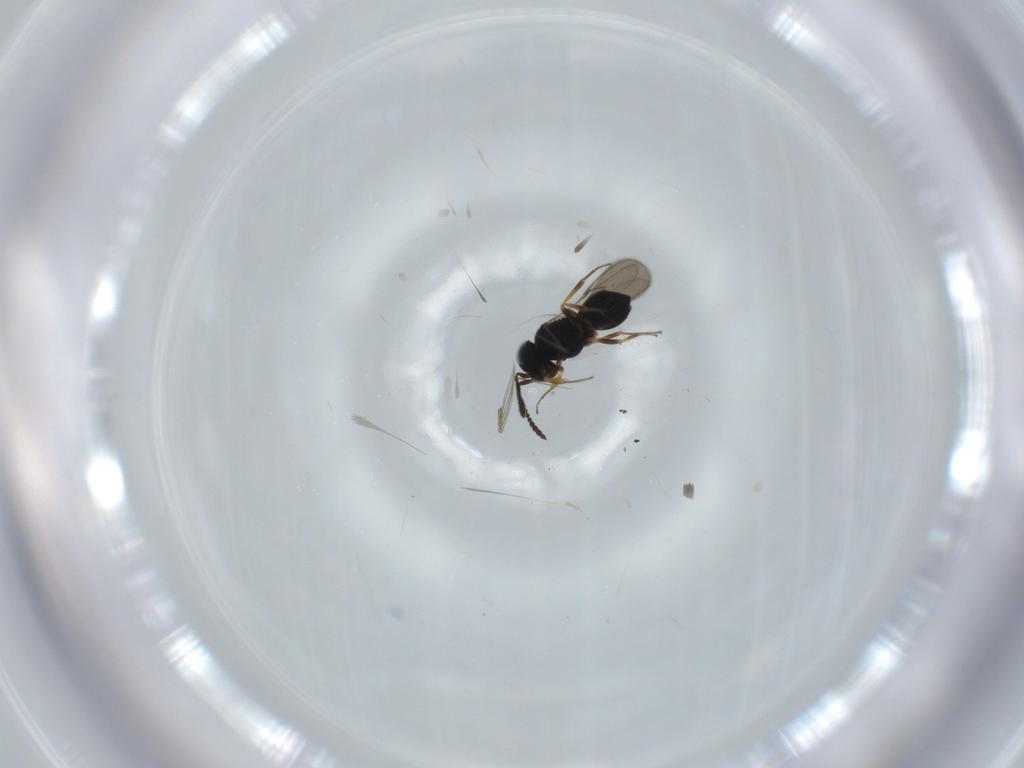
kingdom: Animalia
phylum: Arthropoda
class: Insecta
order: Hymenoptera
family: Scelionidae
